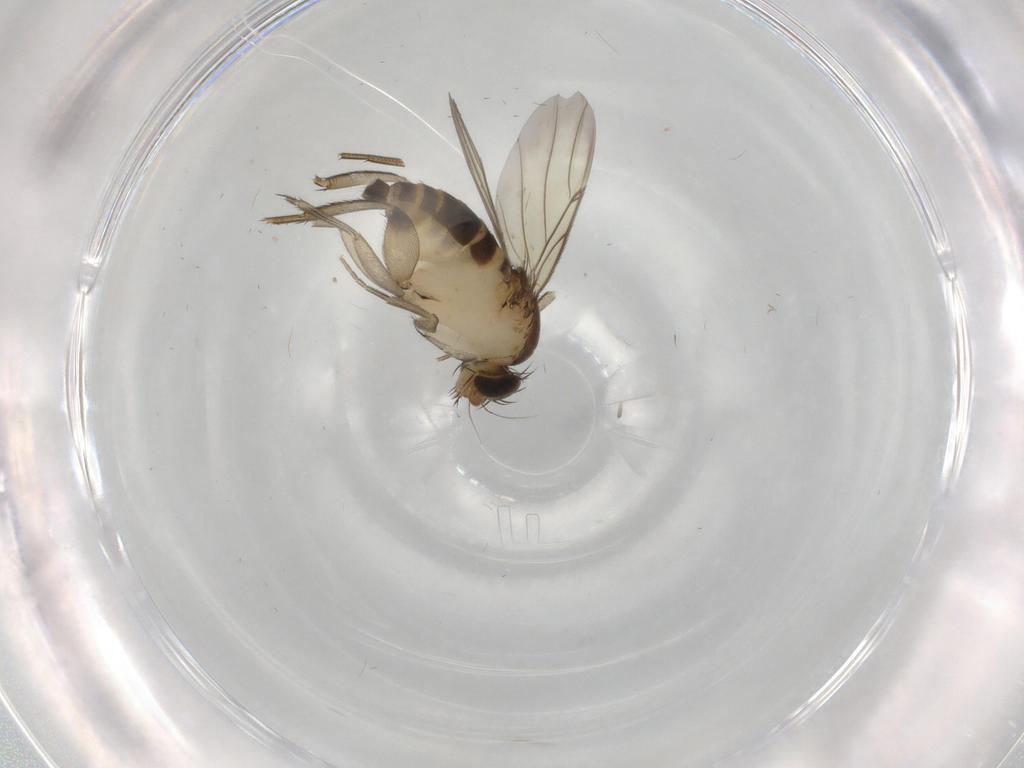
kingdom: Animalia
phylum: Arthropoda
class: Insecta
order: Diptera
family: Phoridae
